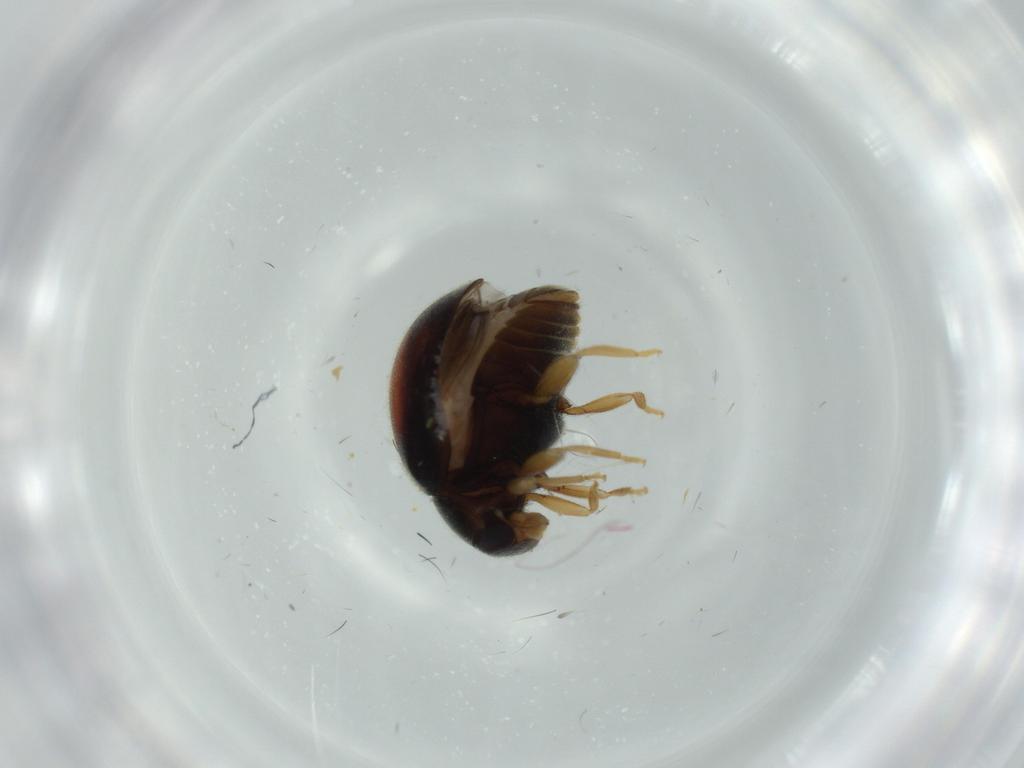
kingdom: Animalia
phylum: Arthropoda
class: Insecta
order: Coleoptera
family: Coccinellidae
